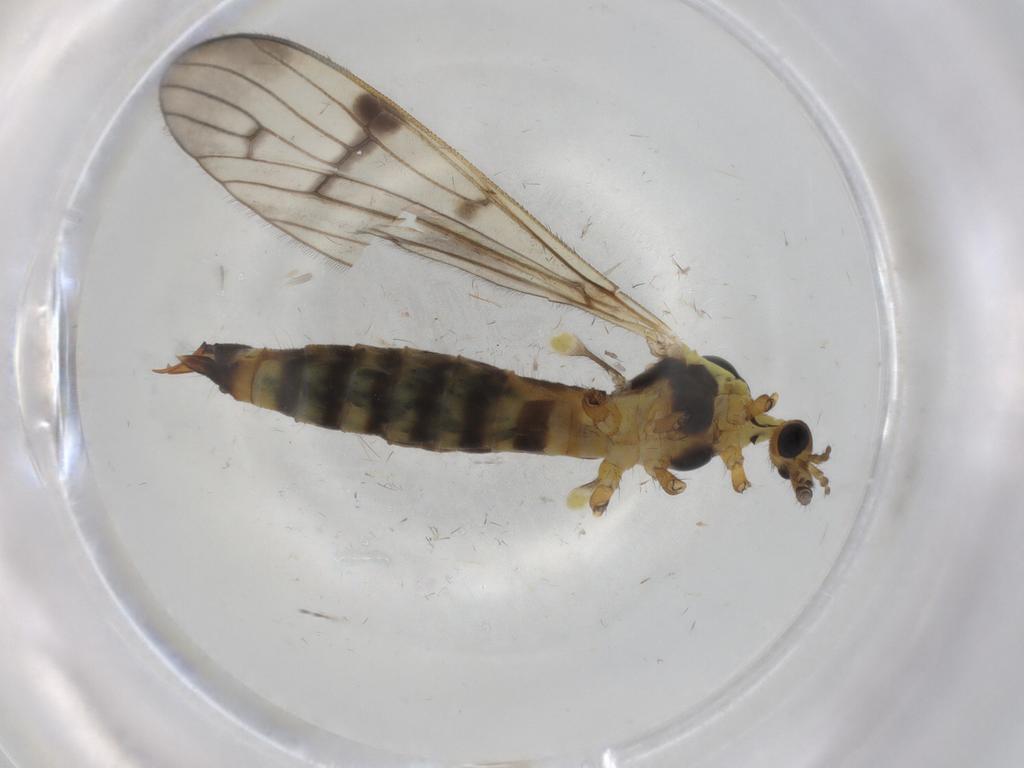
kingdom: Animalia
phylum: Arthropoda
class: Insecta
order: Diptera
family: Limoniidae
